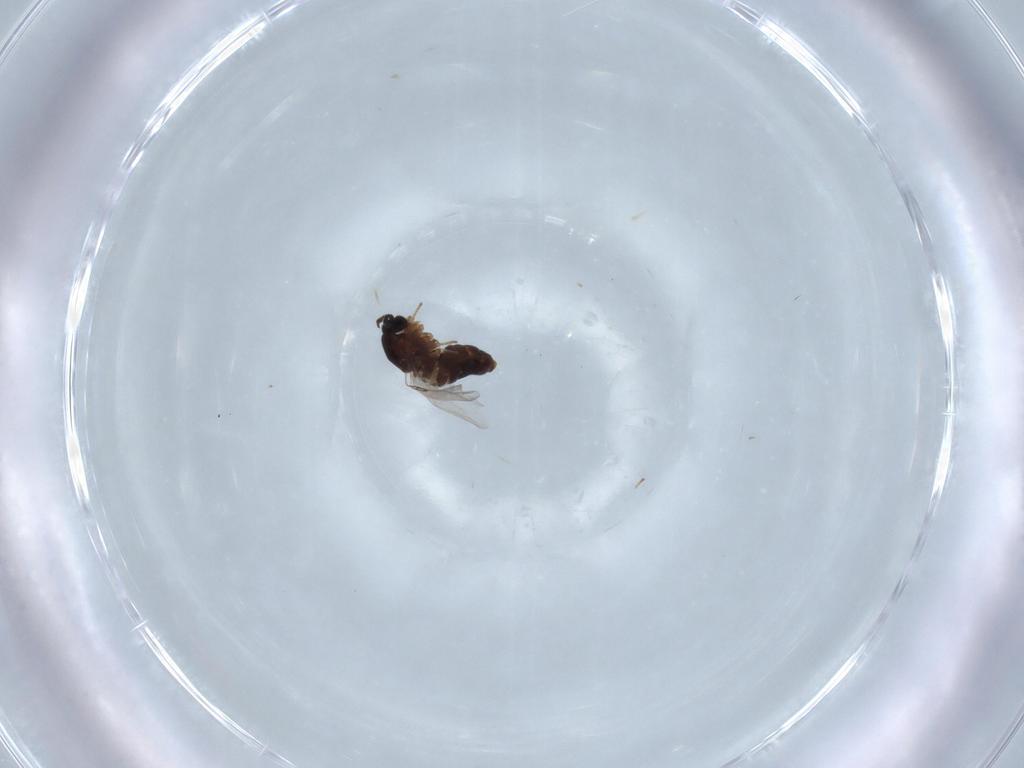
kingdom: Animalia
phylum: Arthropoda
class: Insecta
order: Diptera
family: Scatopsidae
